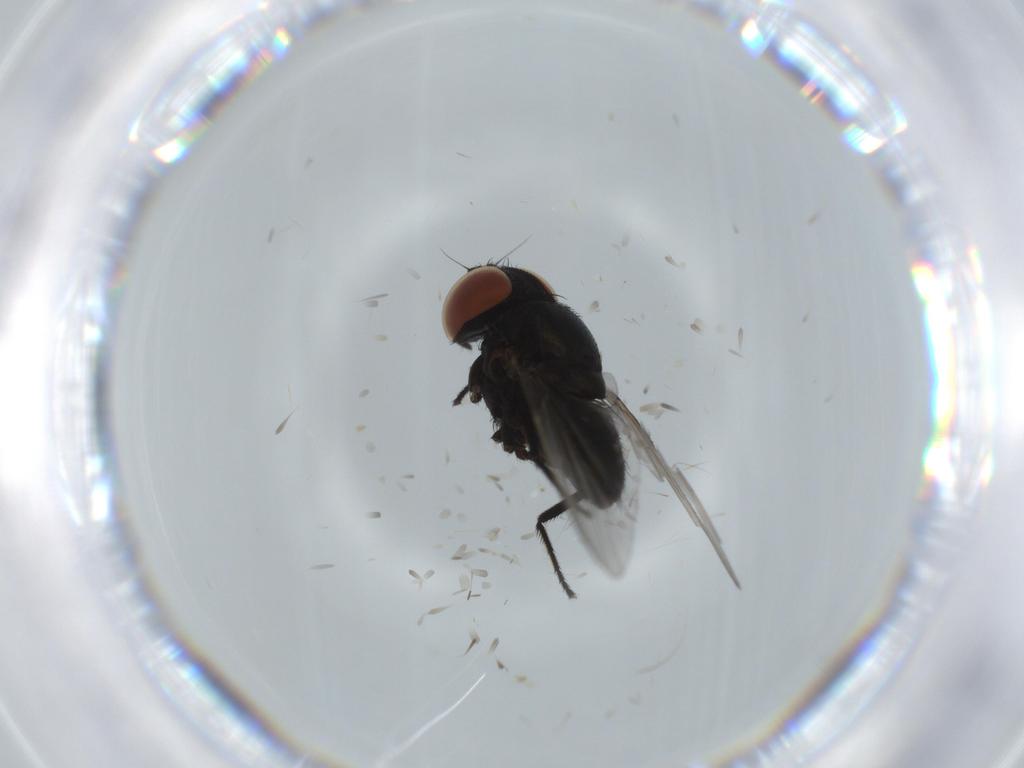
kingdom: Animalia
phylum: Arthropoda
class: Insecta
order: Diptera
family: Milichiidae
